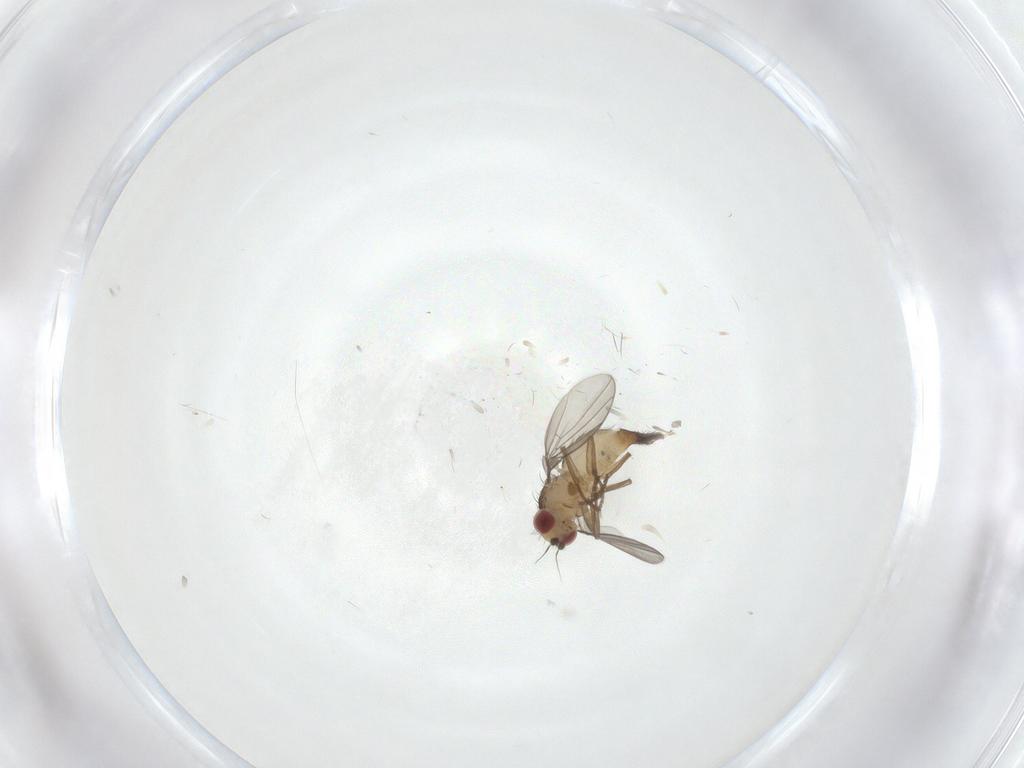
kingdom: Animalia
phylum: Arthropoda
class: Insecta
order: Diptera
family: Agromyzidae
